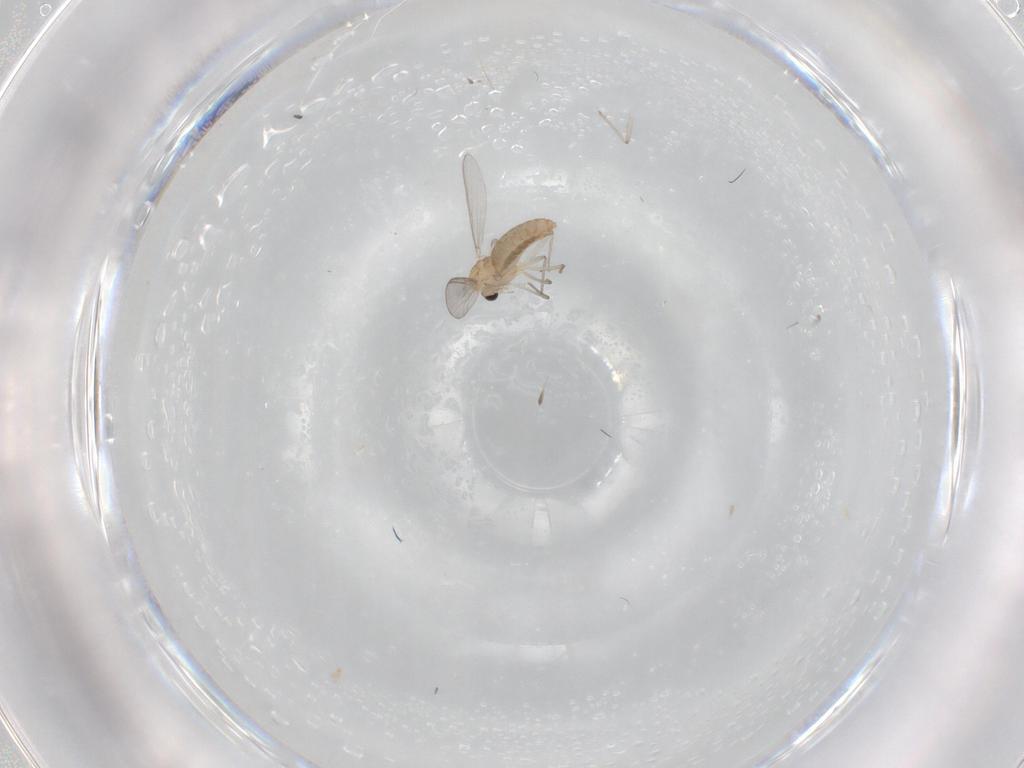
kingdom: Animalia
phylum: Arthropoda
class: Insecta
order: Diptera
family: Chironomidae
